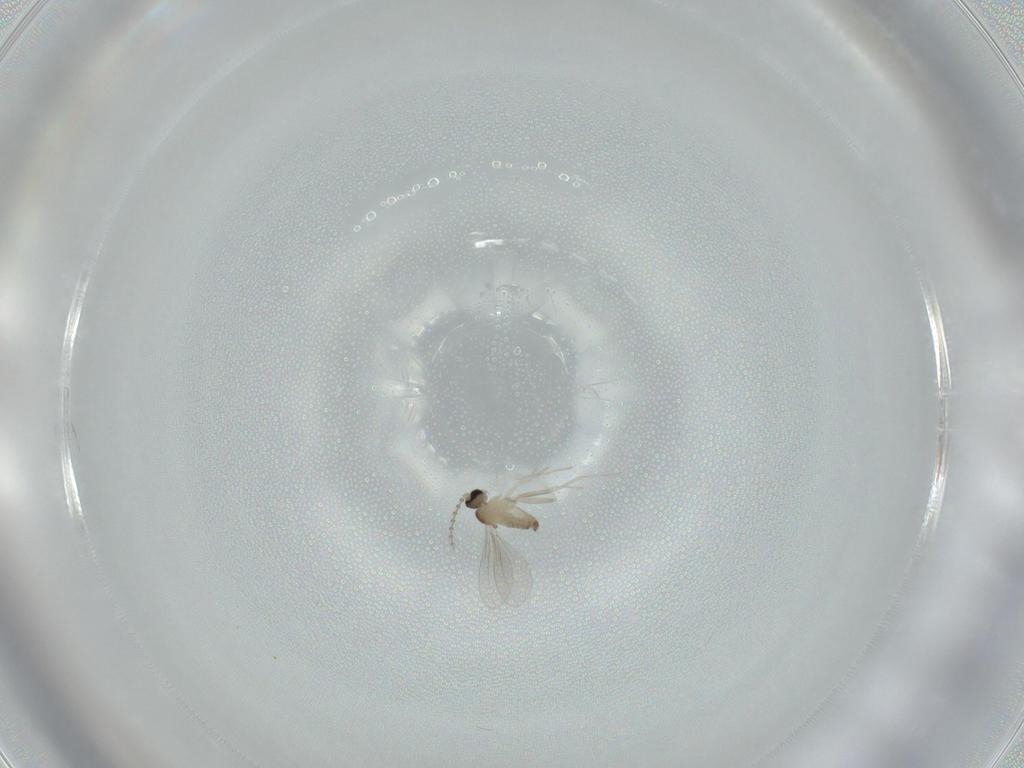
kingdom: Animalia
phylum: Arthropoda
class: Insecta
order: Diptera
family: Cecidomyiidae
